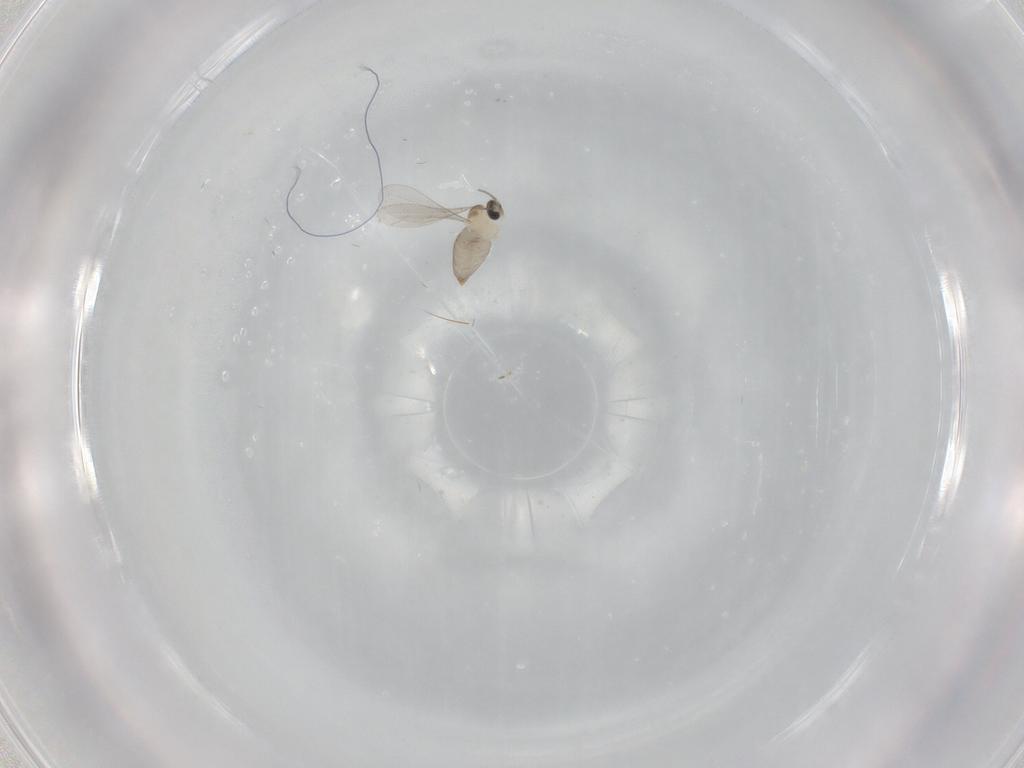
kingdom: Animalia
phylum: Arthropoda
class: Insecta
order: Diptera
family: Cecidomyiidae
